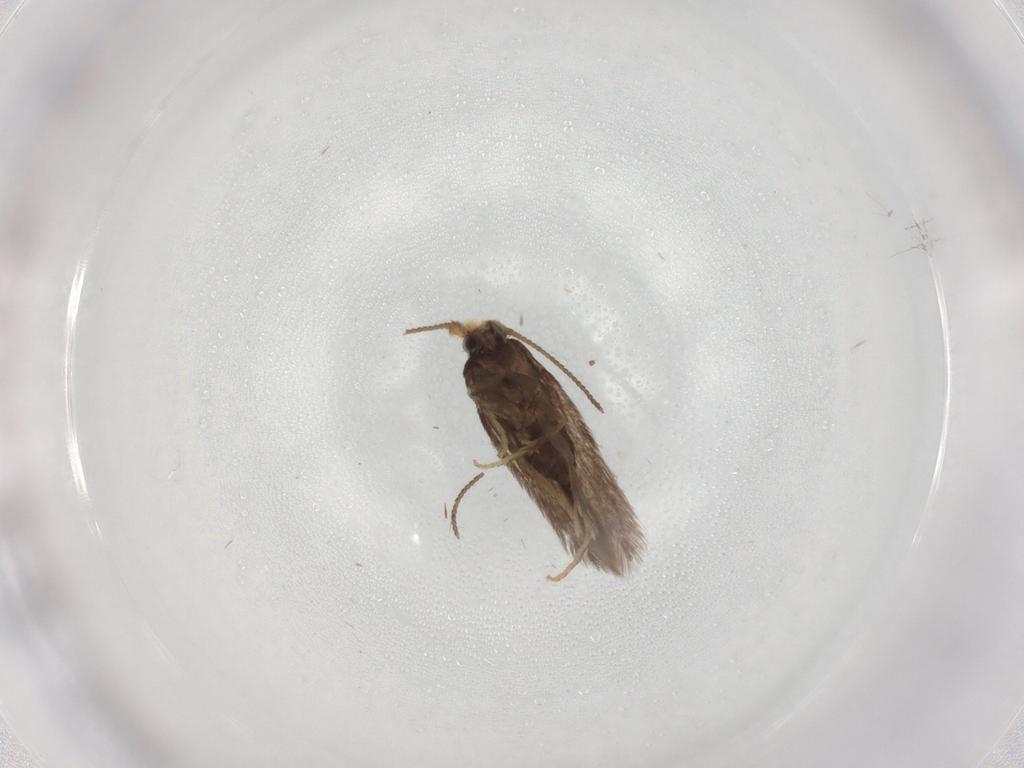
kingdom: Animalia
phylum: Arthropoda
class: Insecta
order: Lepidoptera
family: Nepticulidae
